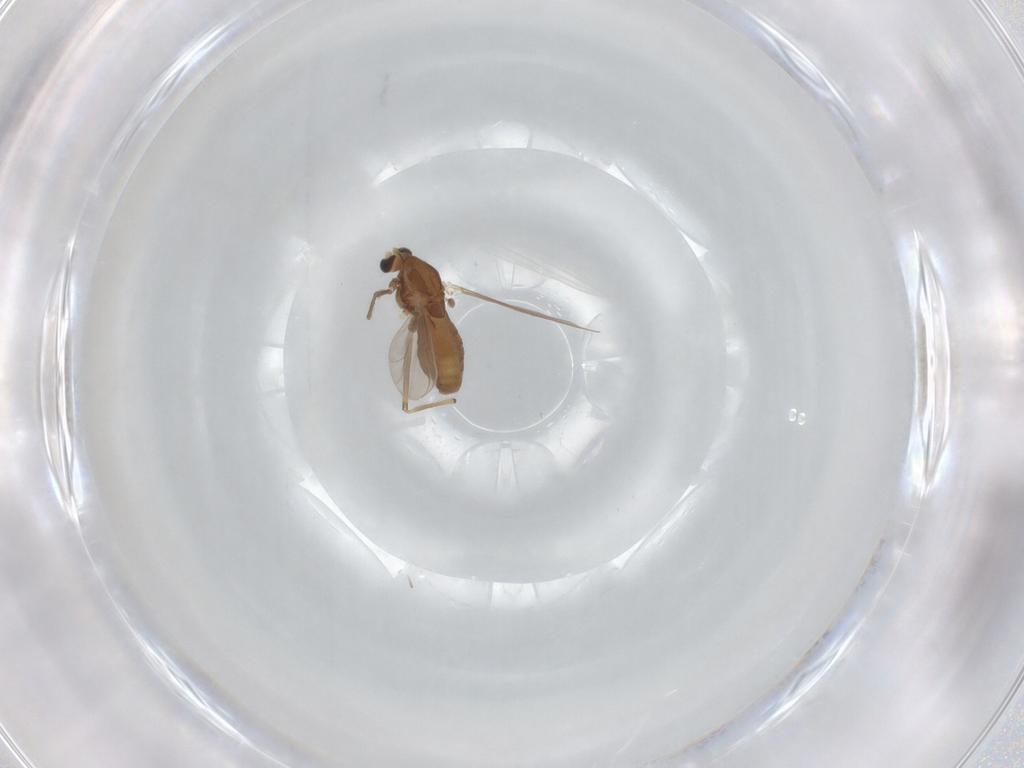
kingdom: Animalia
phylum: Arthropoda
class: Insecta
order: Diptera
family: Chironomidae
